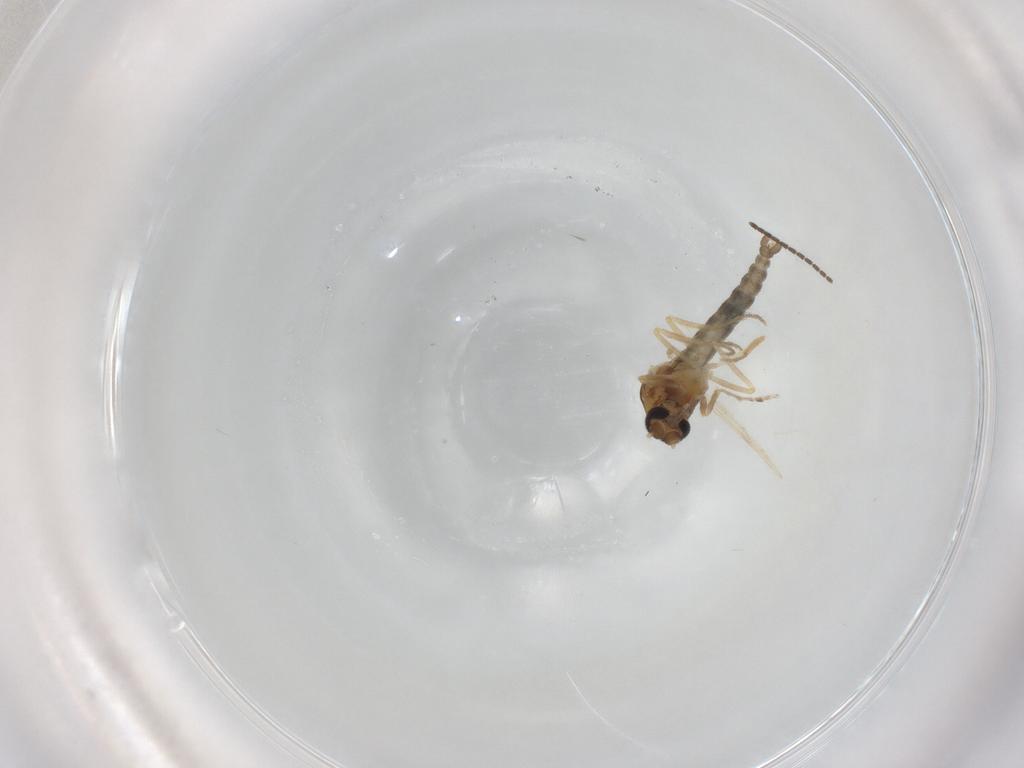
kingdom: Animalia
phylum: Arthropoda
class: Insecta
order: Diptera
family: Ceratopogonidae
